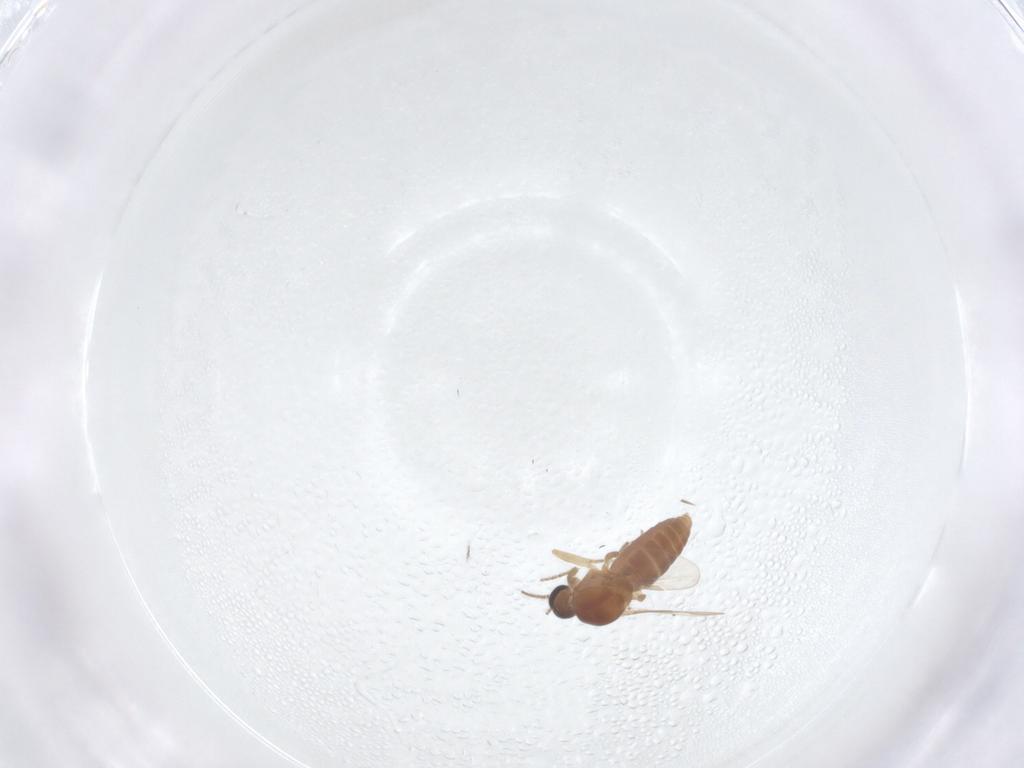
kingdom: Animalia
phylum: Arthropoda
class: Insecta
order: Diptera
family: Ceratopogonidae
